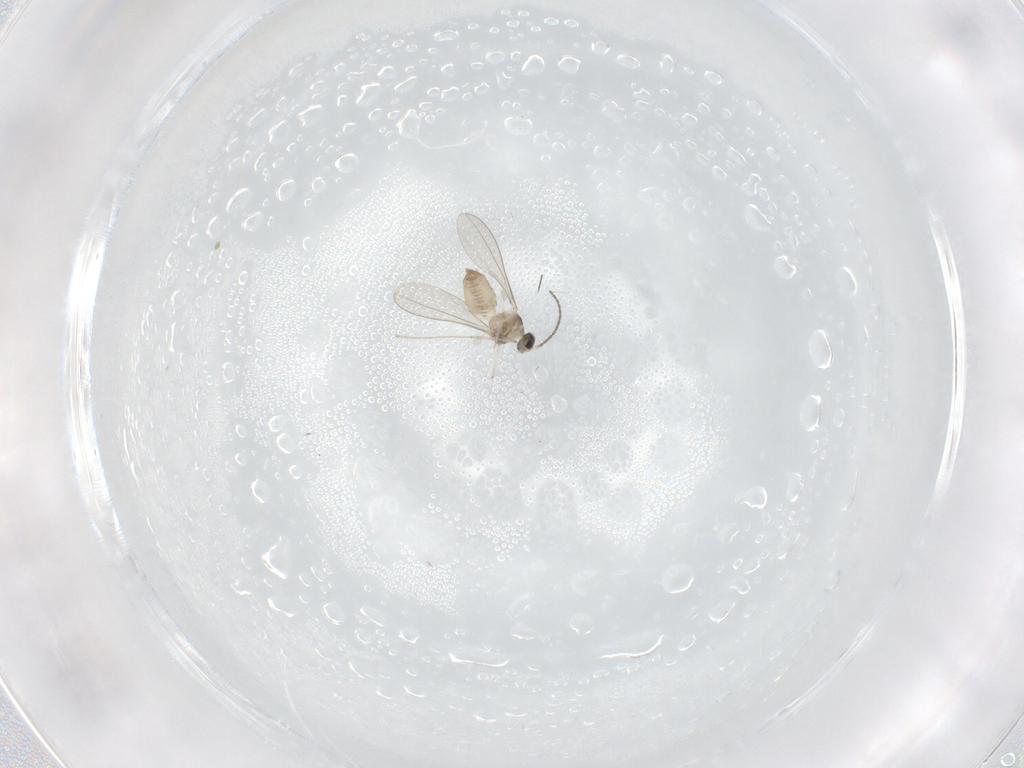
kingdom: Animalia
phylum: Arthropoda
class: Insecta
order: Diptera
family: Cecidomyiidae
